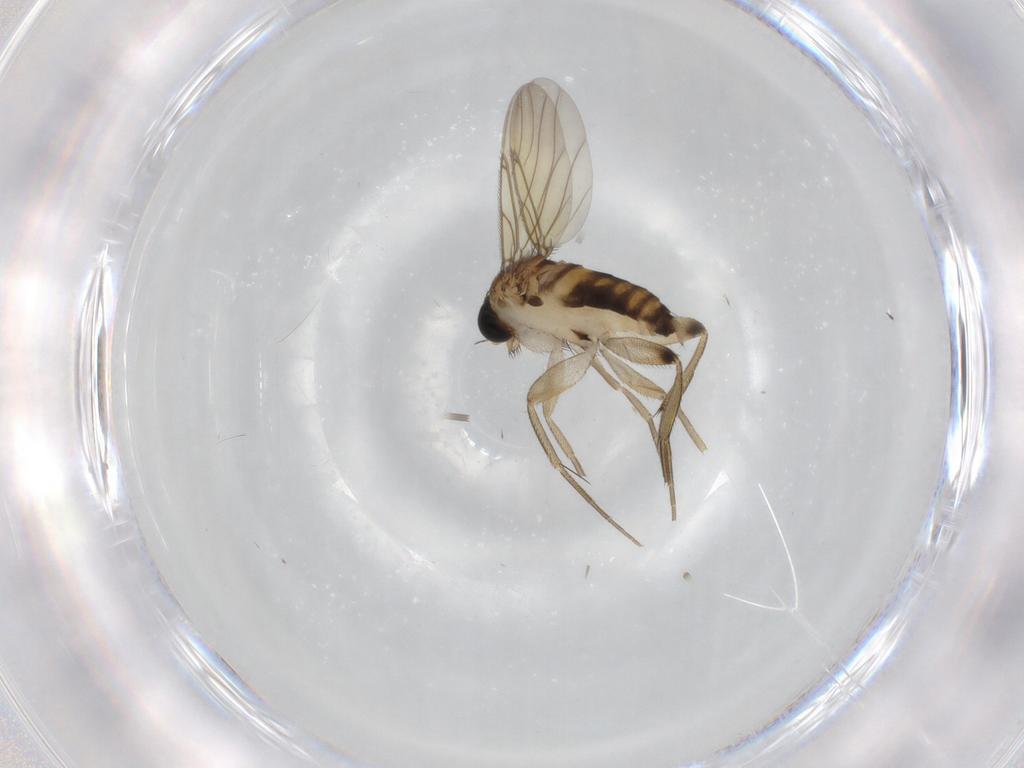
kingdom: Animalia
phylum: Arthropoda
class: Insecta
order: Diptera
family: Phoridae
